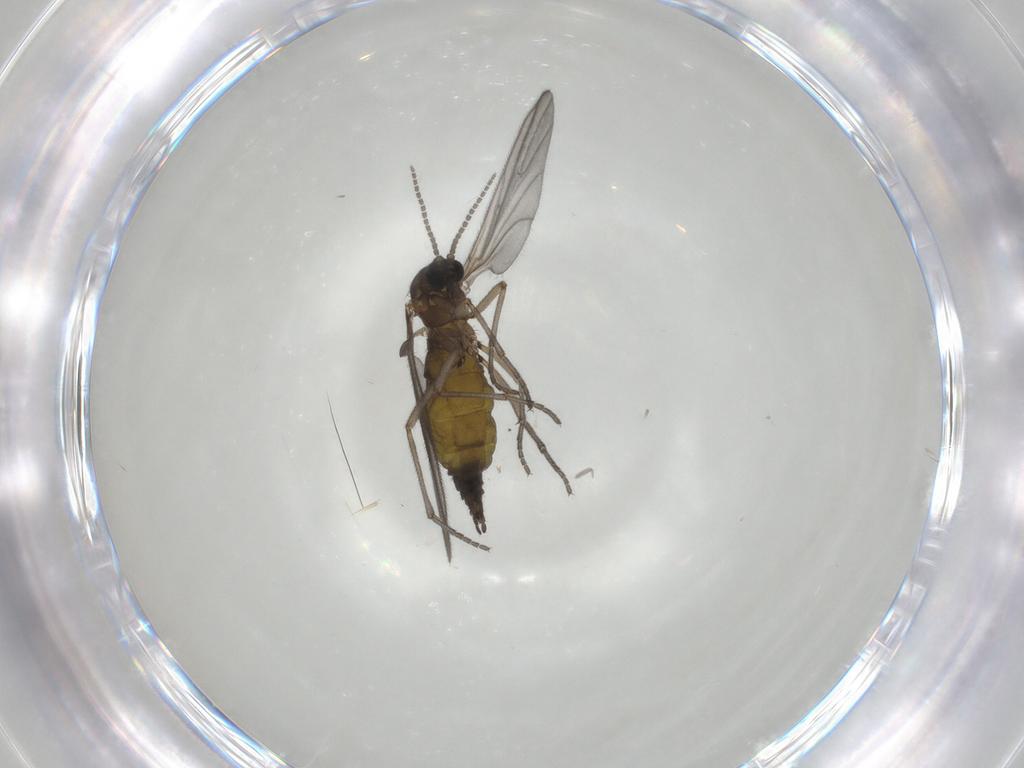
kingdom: Animalia
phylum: Arthropoda
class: Insecta
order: Diptera
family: Sciaridae
